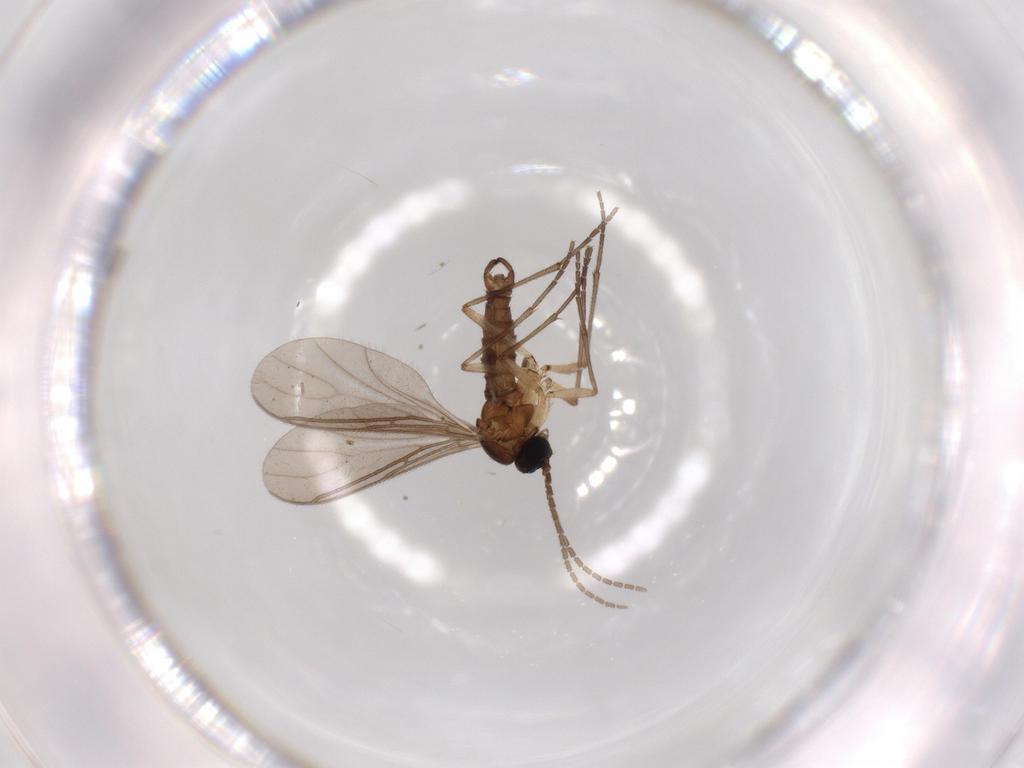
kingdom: Animalia
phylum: Arthropoda
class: Insecta
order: Diptera
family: Cecidomyiidae
